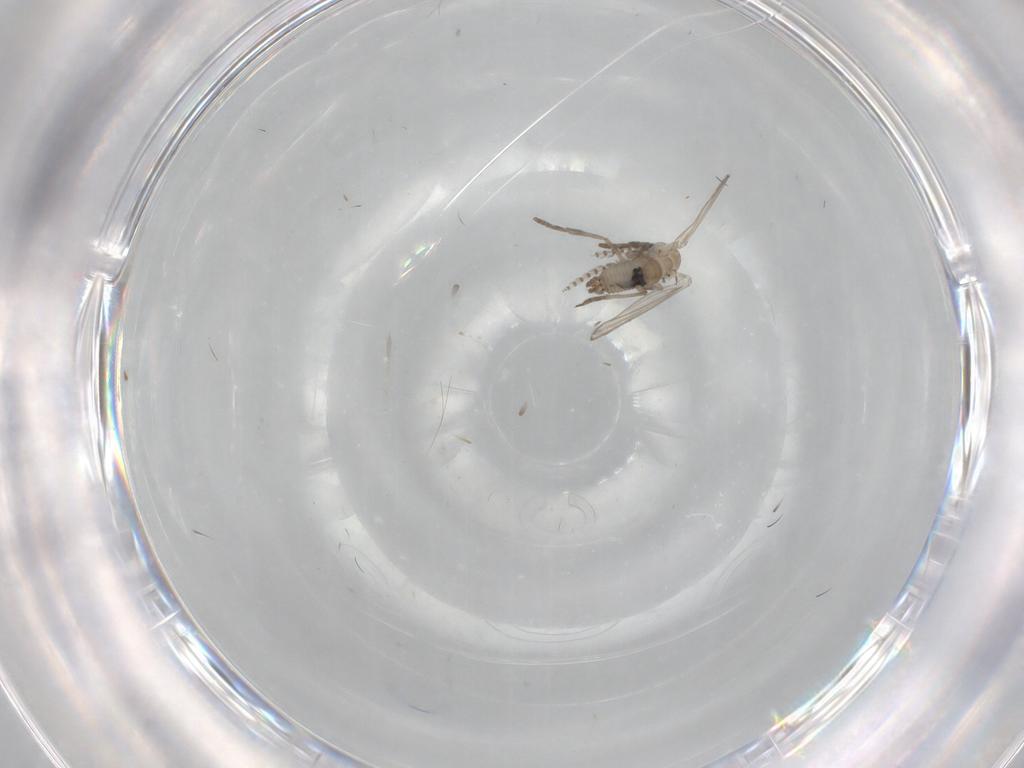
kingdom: Animalia
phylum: Arthropoda
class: Insecta
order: Diptera
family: Psychodidae
